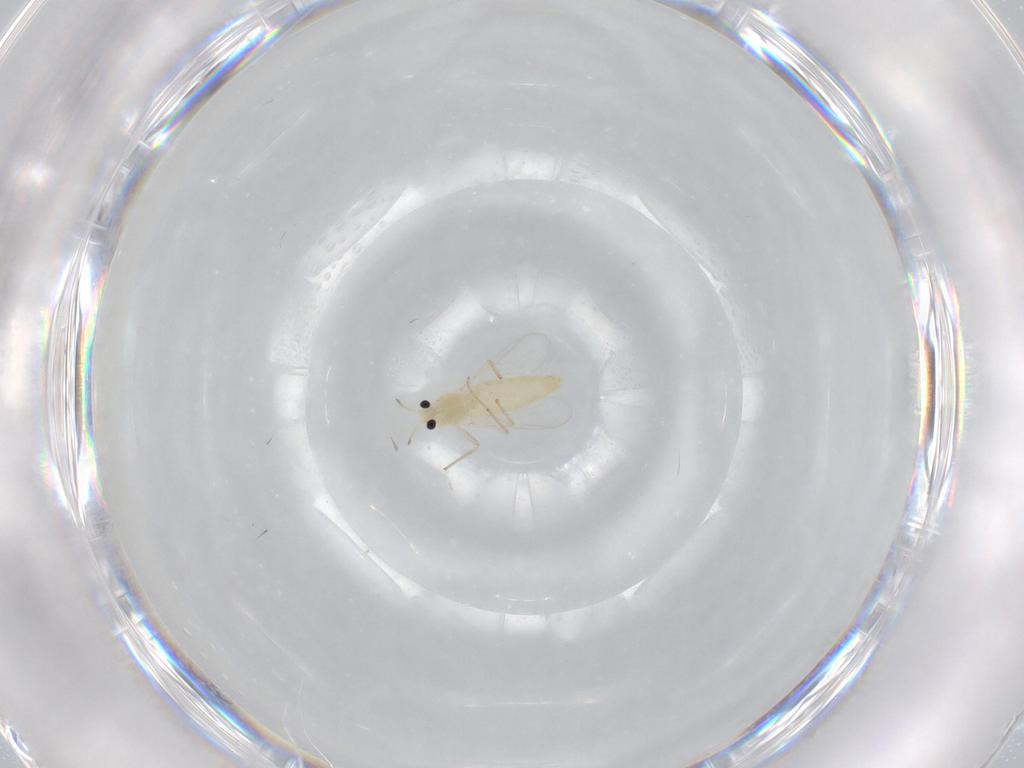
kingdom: Animalia
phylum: Arthropoda
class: Insecta
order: Diptera
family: Chironomidae
